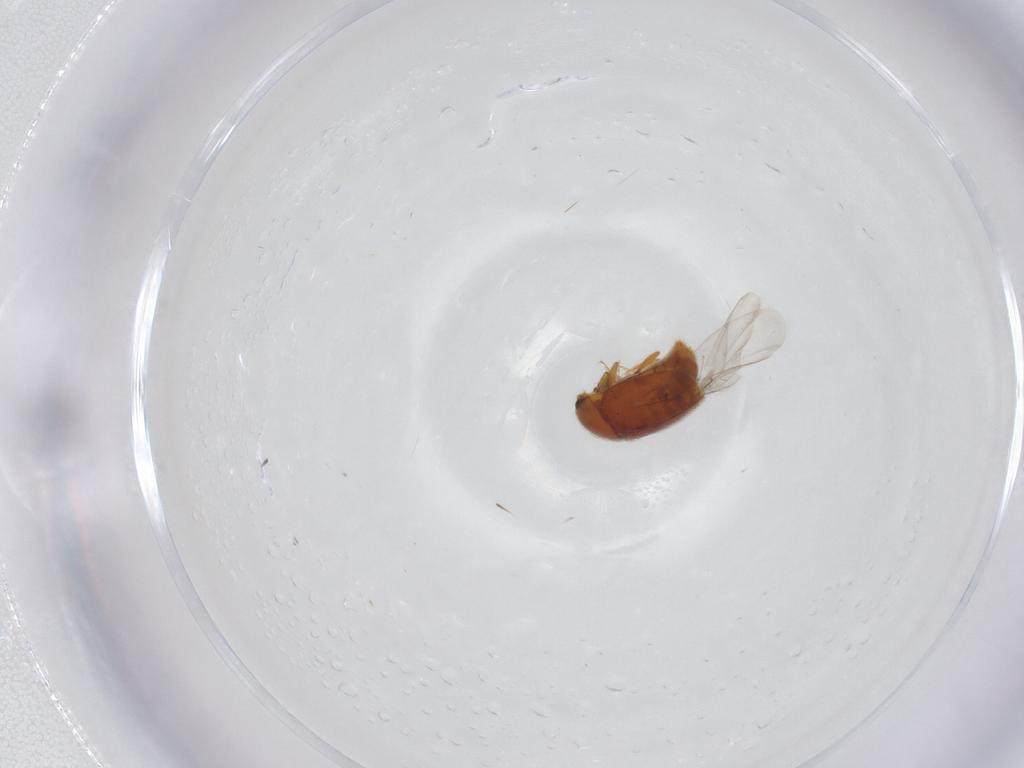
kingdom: Animalia
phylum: Arthropoda
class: Insecta
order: Coleoptera
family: Corylophidae
